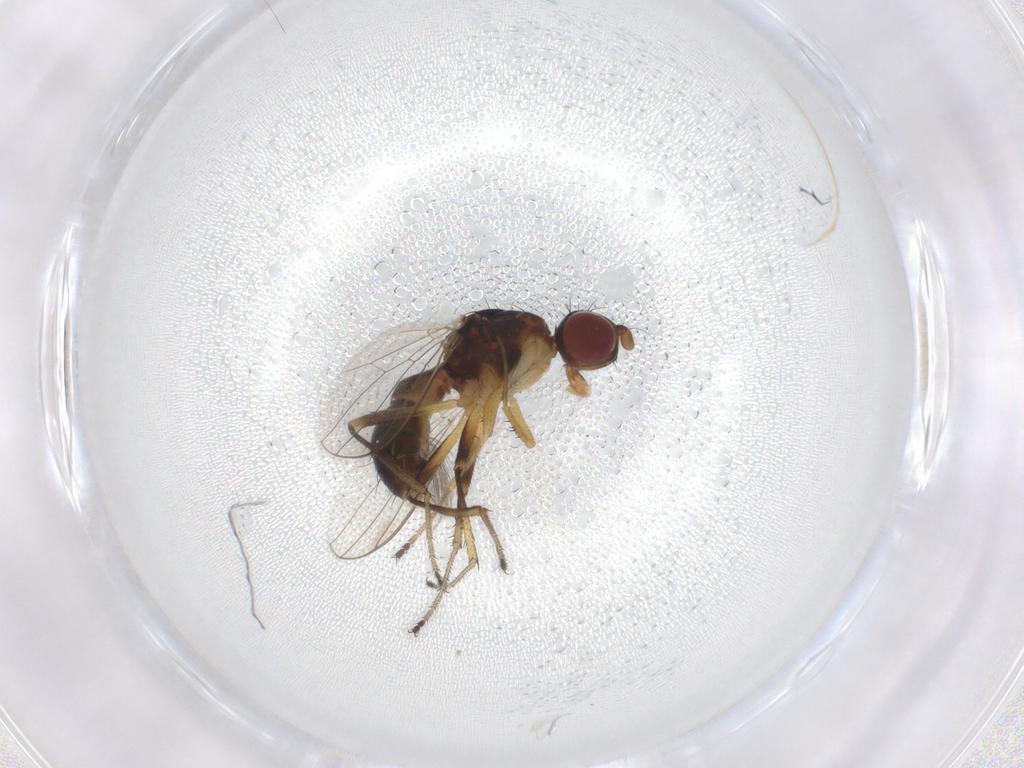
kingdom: Animalia
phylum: Arthropoda
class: Insecta
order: Diptera
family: Sepsidae
